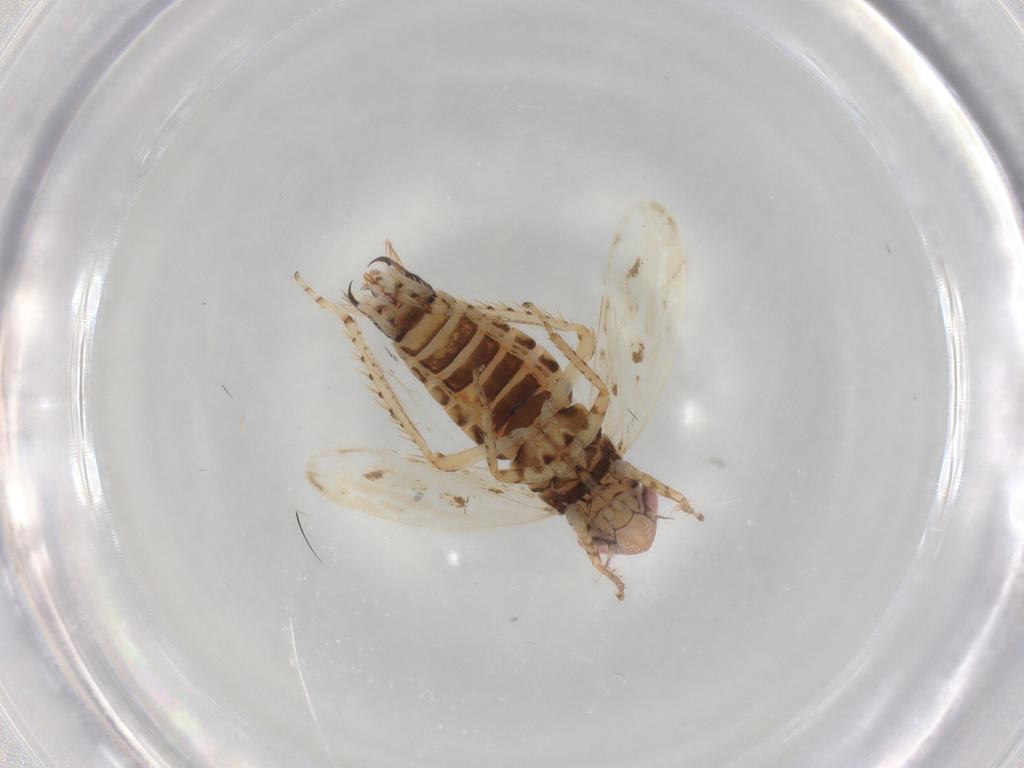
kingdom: Animalia
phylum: Arthropoda
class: Insecta
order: Hemiptera
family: Cicadellidae
